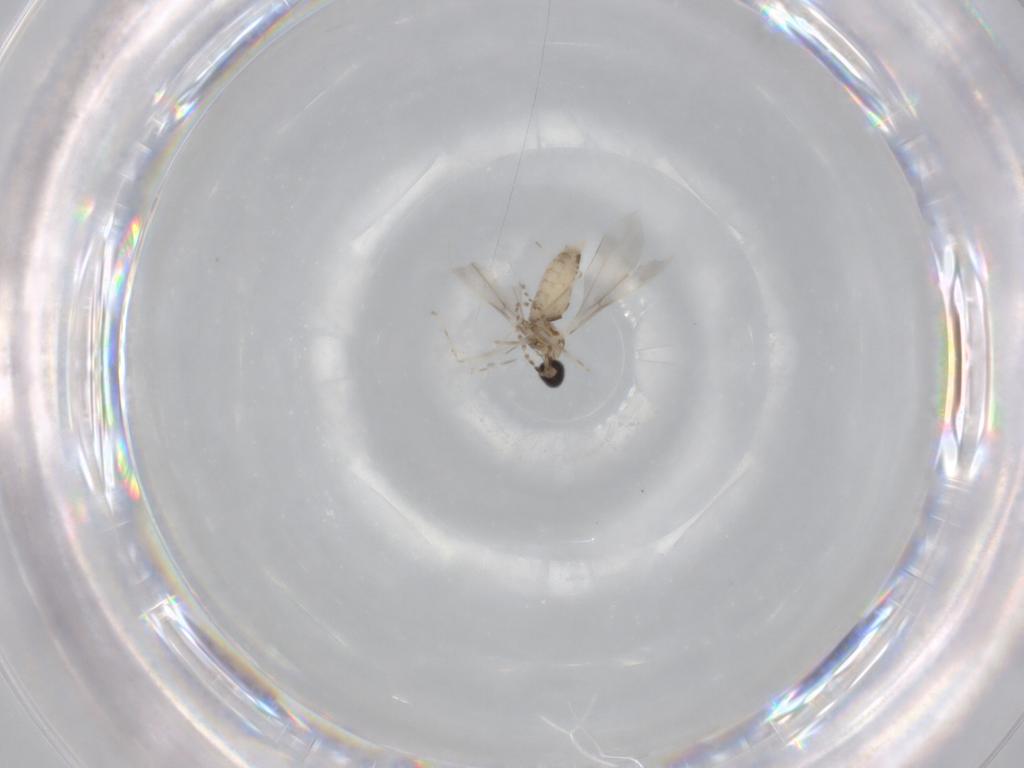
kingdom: Animalia
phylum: Arthropoda
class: Insecta
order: Diptera
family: Cecidomyiidae
